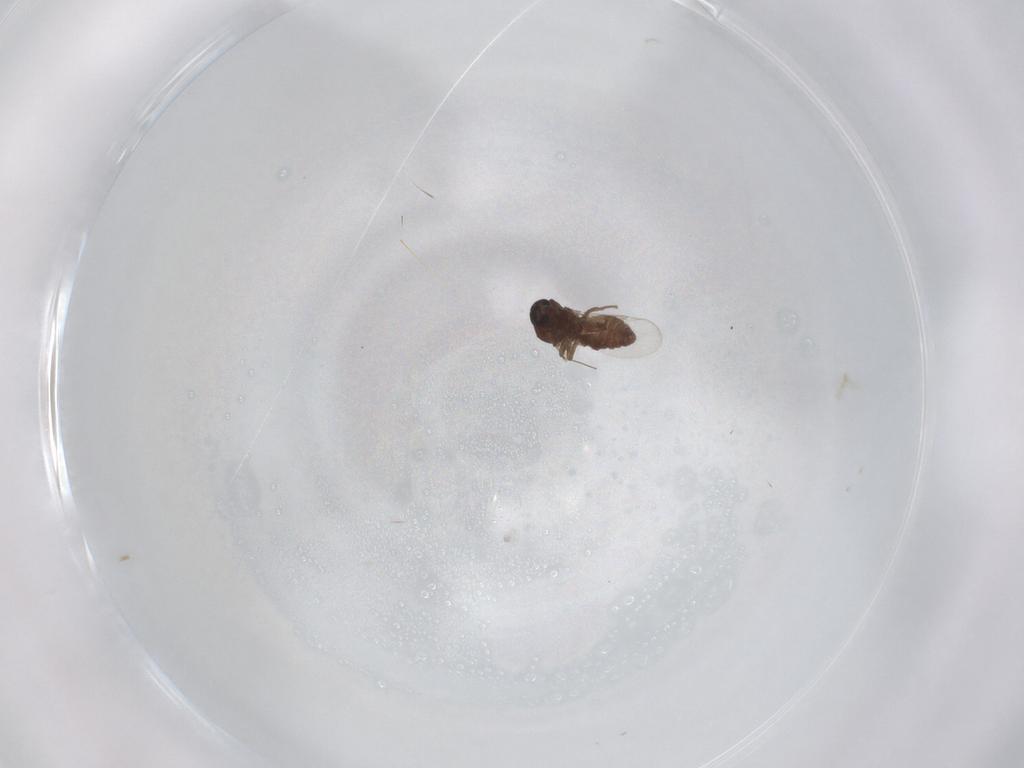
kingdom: Animalia
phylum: Arthropoda
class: Insecta
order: Diptera
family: Ceratopogonidae
